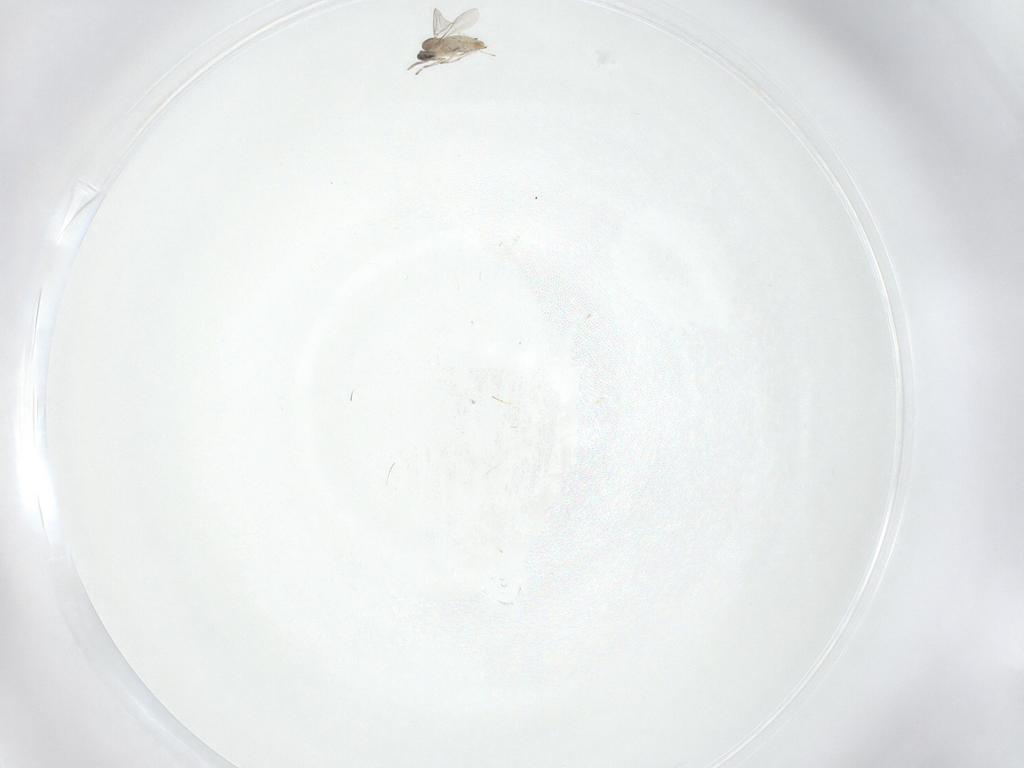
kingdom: Animalia
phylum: Arthropoda
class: Insecta
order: Diptera
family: Cecidomyiidae
